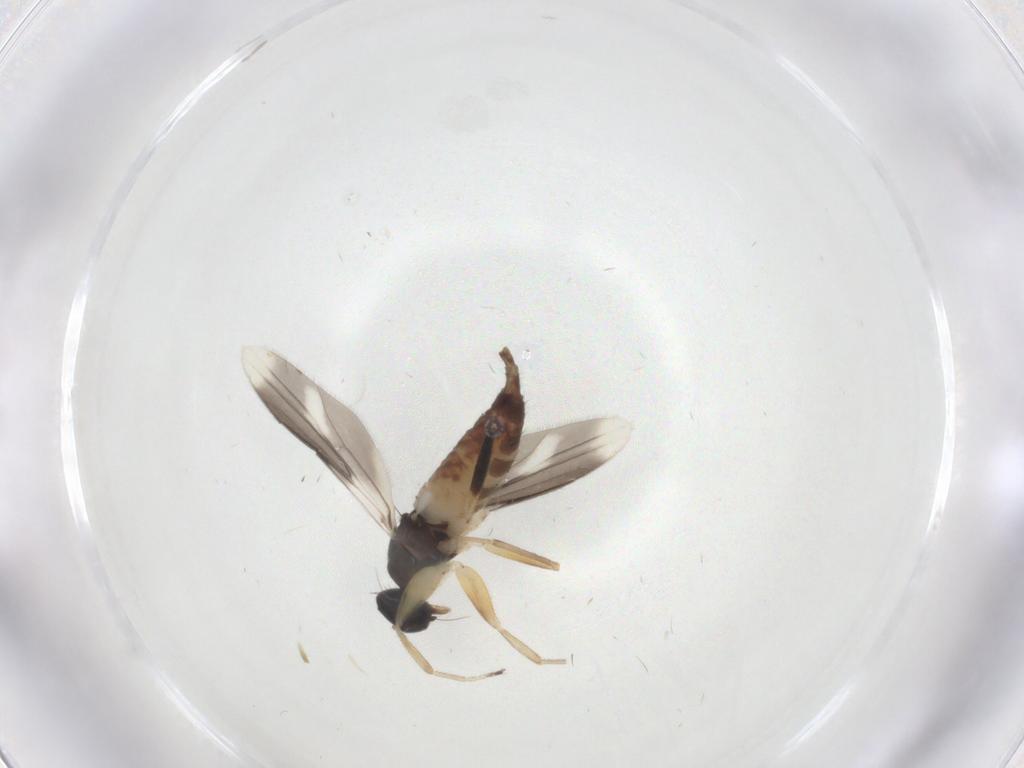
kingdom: Animalia
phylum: Arthropoda
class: Insecta
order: Diptera
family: Hybotidae
